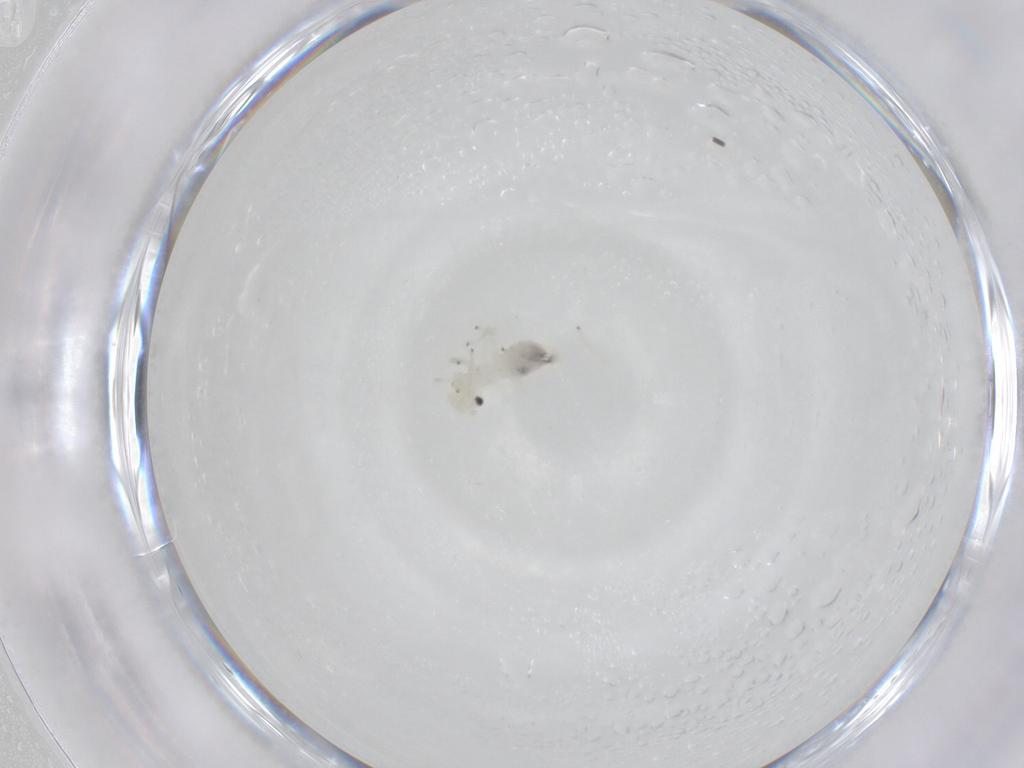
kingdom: Animalia
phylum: Arthropoda
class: Insecta
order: Psocodea
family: Caeciliusidae
